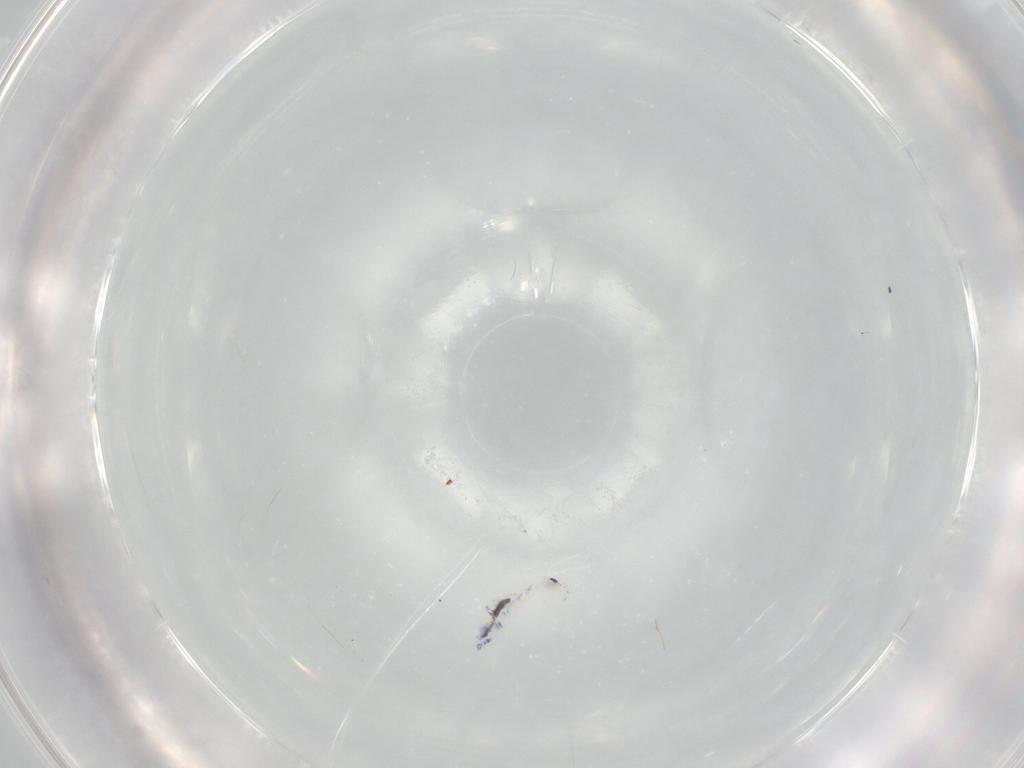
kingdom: Animalia
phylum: Arthropoda
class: Collembola
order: Entomobryomorpha
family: Entomobryidae
